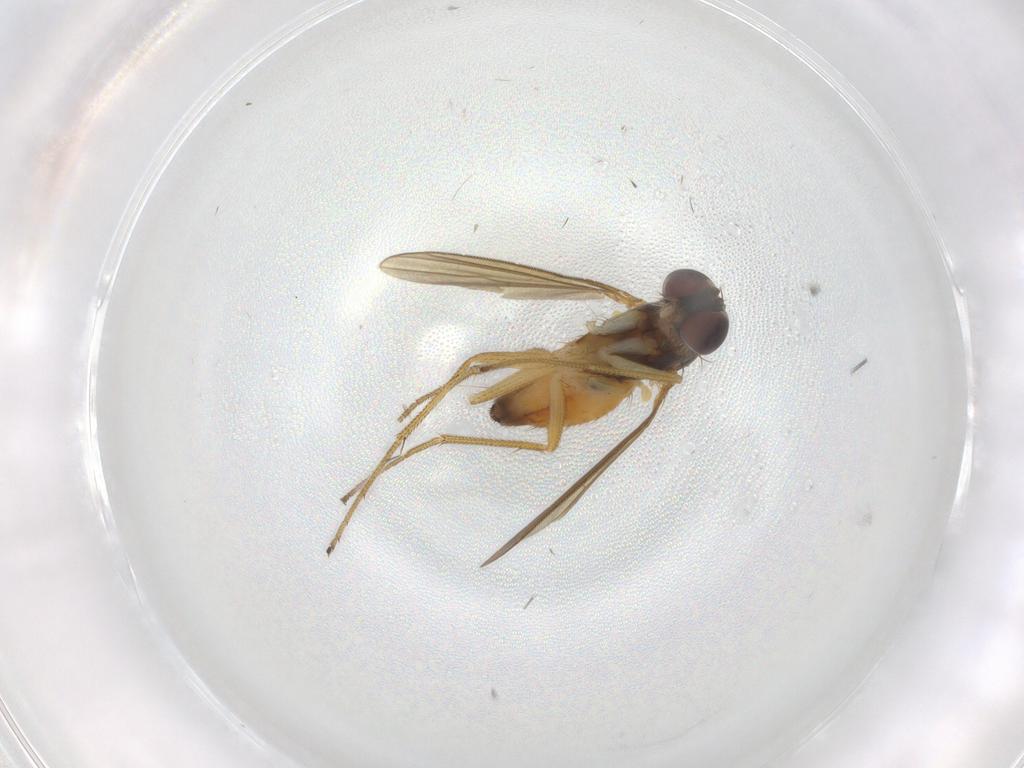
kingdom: Animalia
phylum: Arthropoda
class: Insecta
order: Diptera
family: Dolichopodidae
